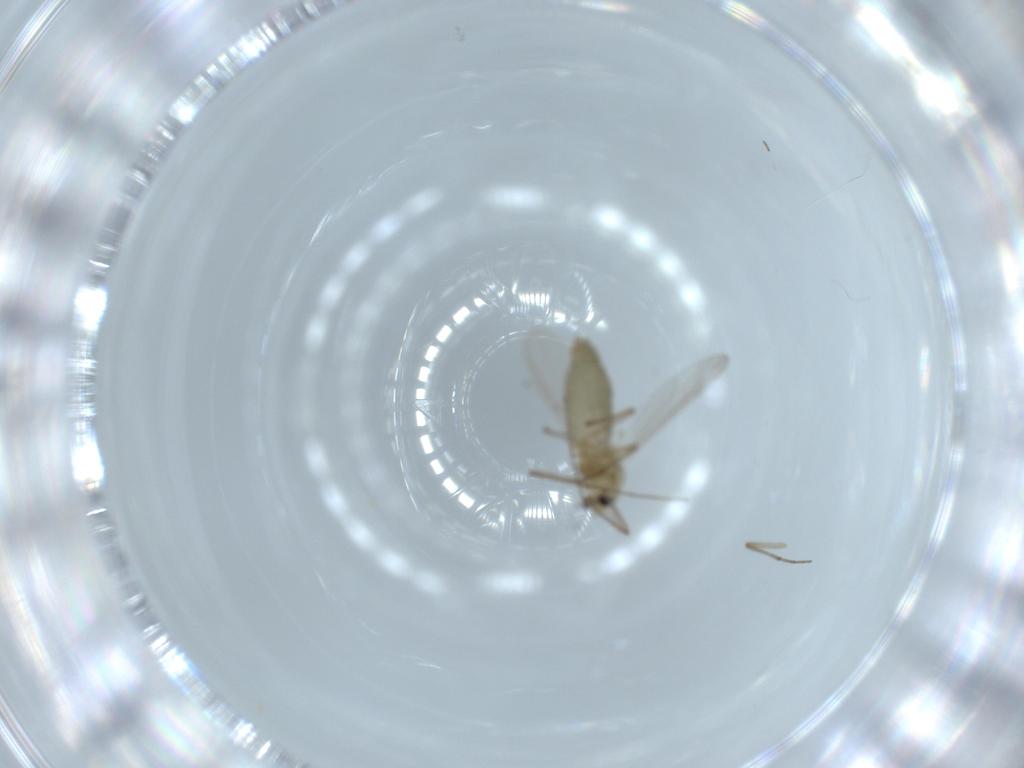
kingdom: Animalia
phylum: Arthropoda
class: Insecta
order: Diptera
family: Chironomidae
